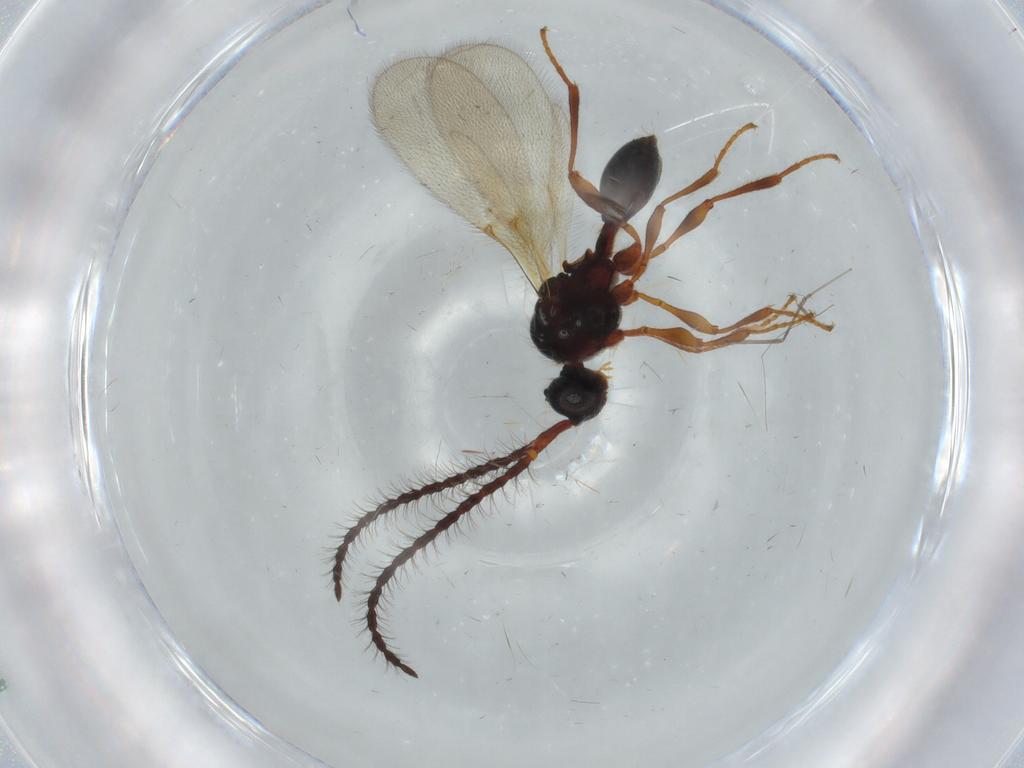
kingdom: Animalia
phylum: Arthropoda
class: Insecta
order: Hymenoptera
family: Diapriidae
